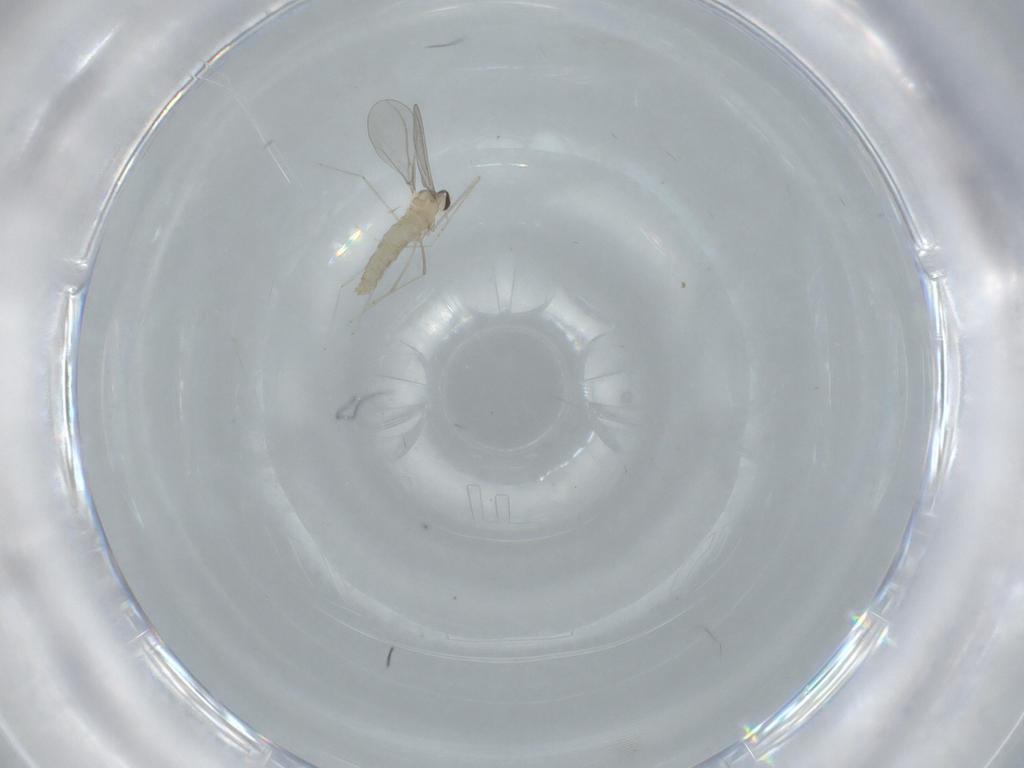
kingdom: Animalia
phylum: Arthropoda
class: Insecta
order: Diptera
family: Cecidomyiidae
